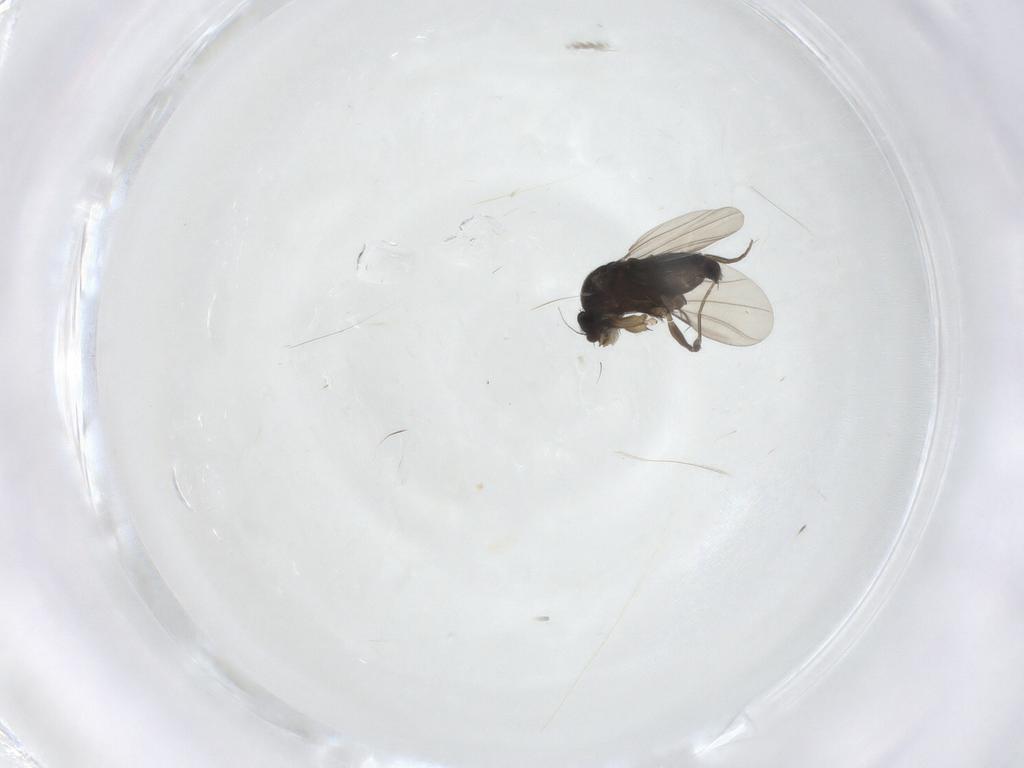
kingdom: Animalia
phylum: Arthropoda
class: Insecta
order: Diptera
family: Phoridae
